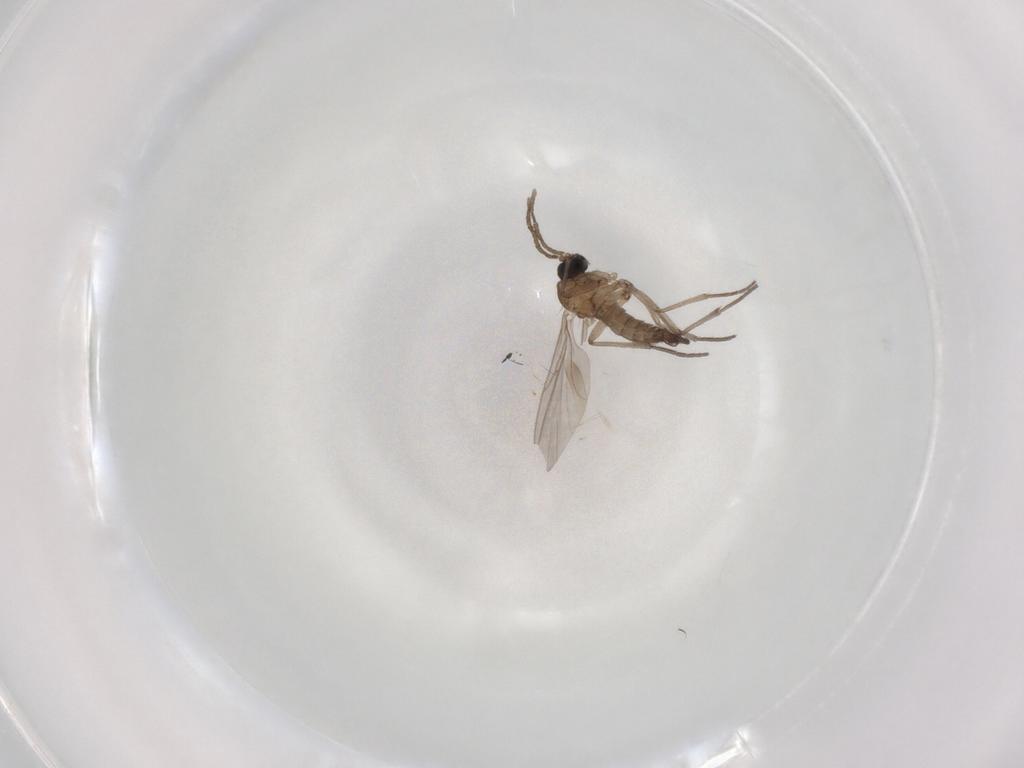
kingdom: Animalia
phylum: Arthropoda
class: Insecta
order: Diptera
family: Sciaridae
